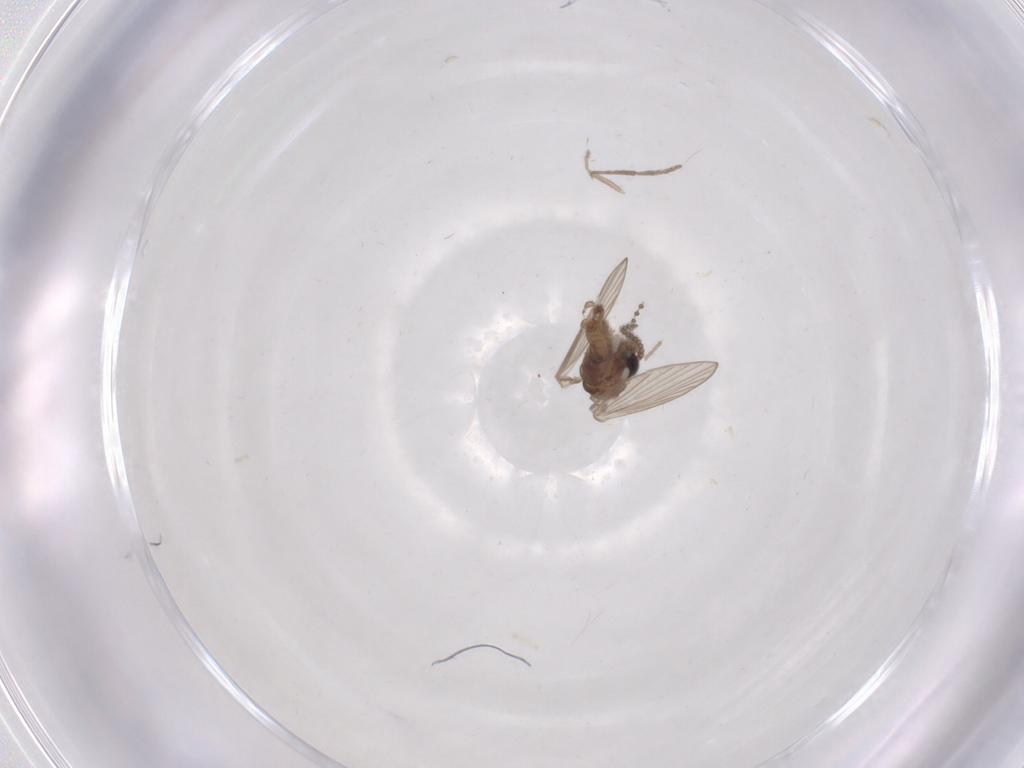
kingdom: Animalia
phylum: Arthropoda
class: Insecta
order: Diptera
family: Psychodidae
